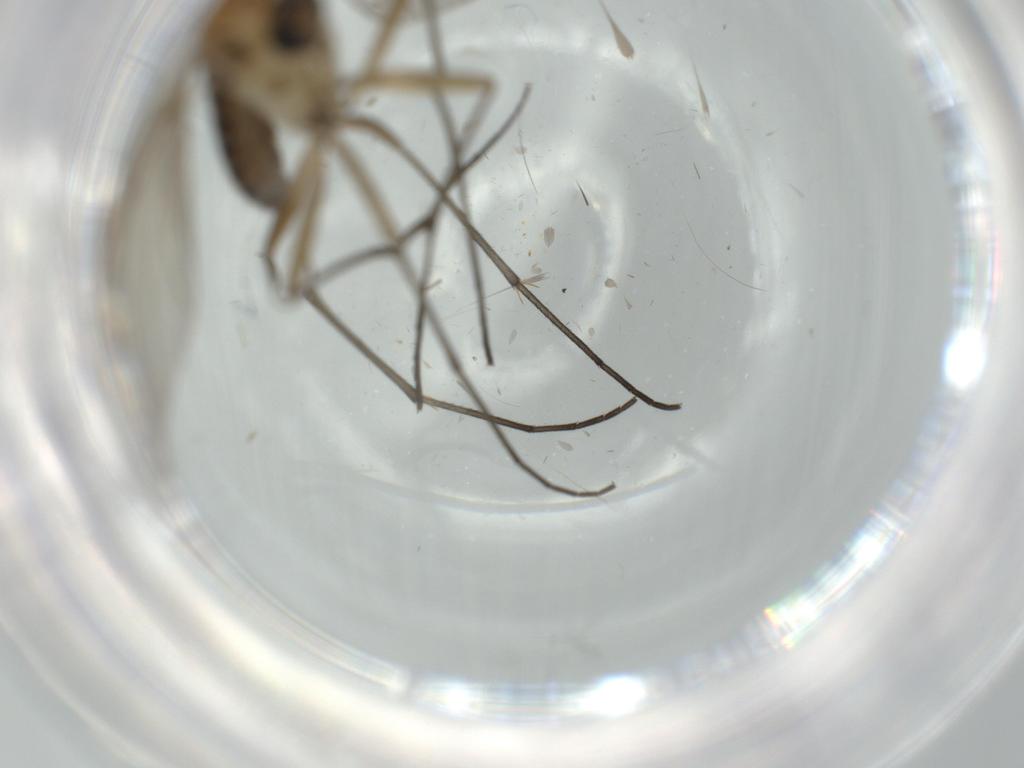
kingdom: Animalia
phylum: Arthropoda
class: Insecta
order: Diptera
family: Sciaridae
